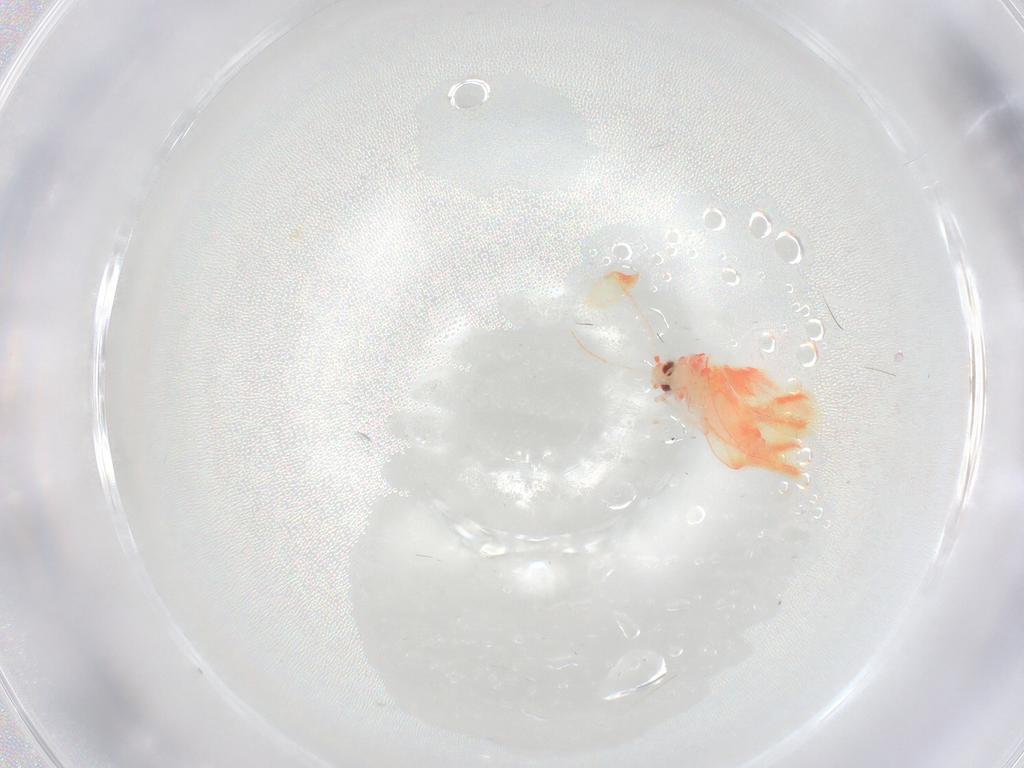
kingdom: Animalia
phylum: Arthropoda
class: Insecta
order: Hemiptera
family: Aleyrodidae
